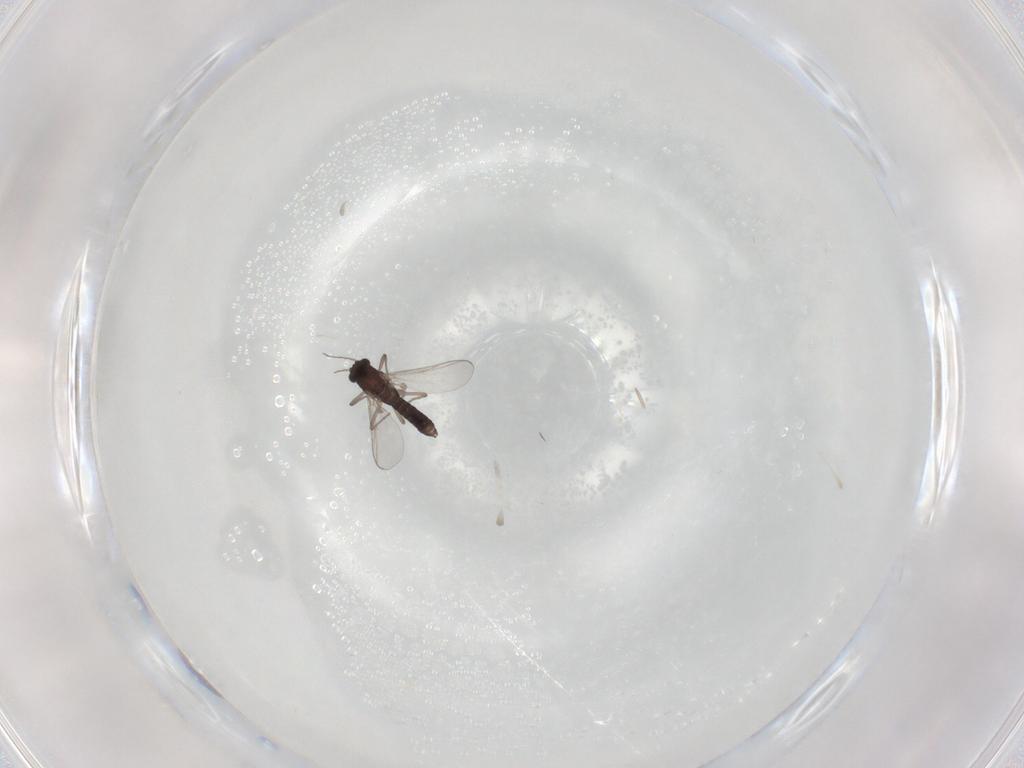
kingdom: Animalia
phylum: Arthropoda
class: Insecta
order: Diptera
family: Chironomidae
